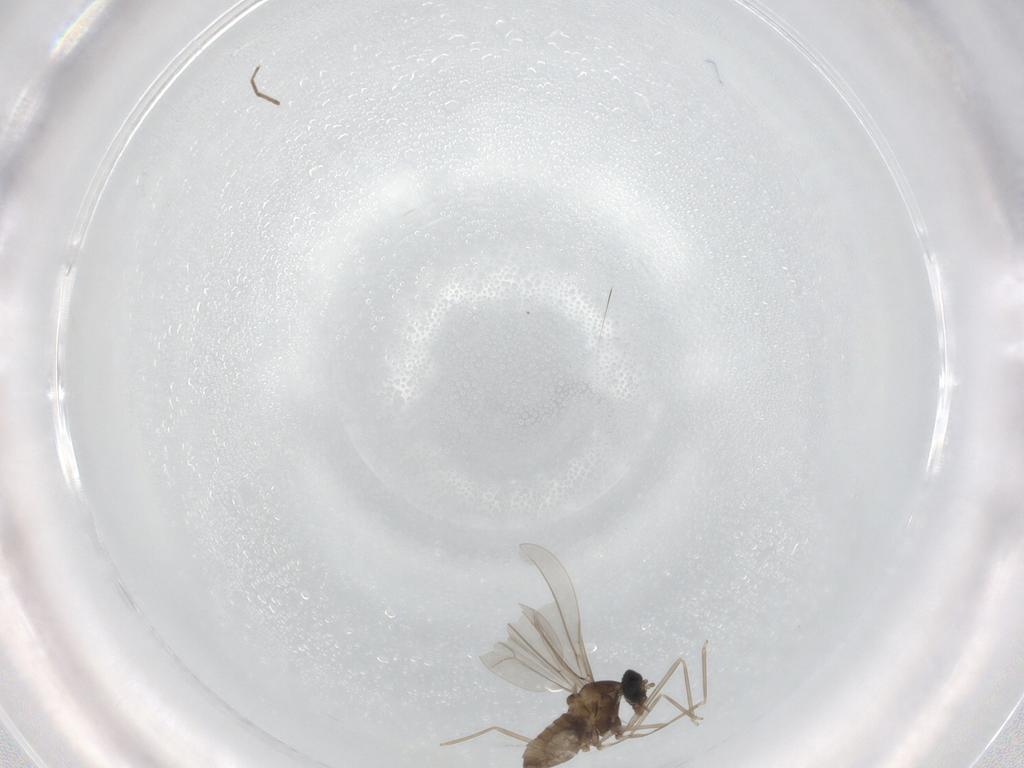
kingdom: Animalia
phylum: Arthropoda
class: Insecta
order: Diptera
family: Cecidomyiidae
